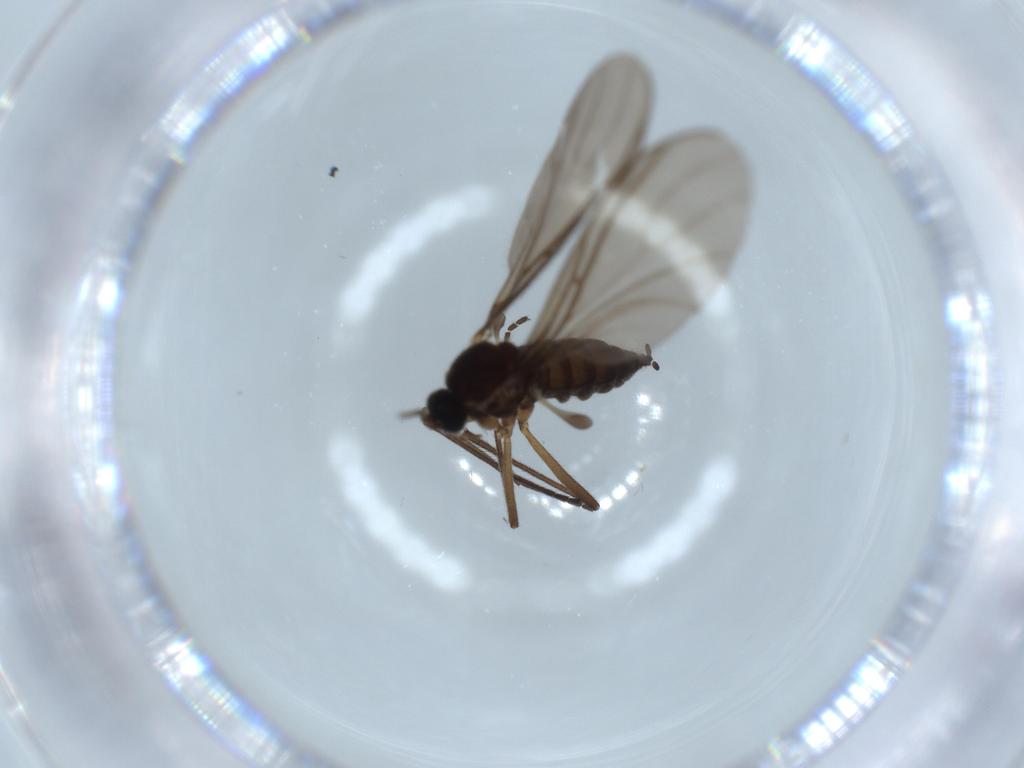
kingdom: Animalia
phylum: Arthropoda
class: Insecta
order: Diptera
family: Sciaridae
